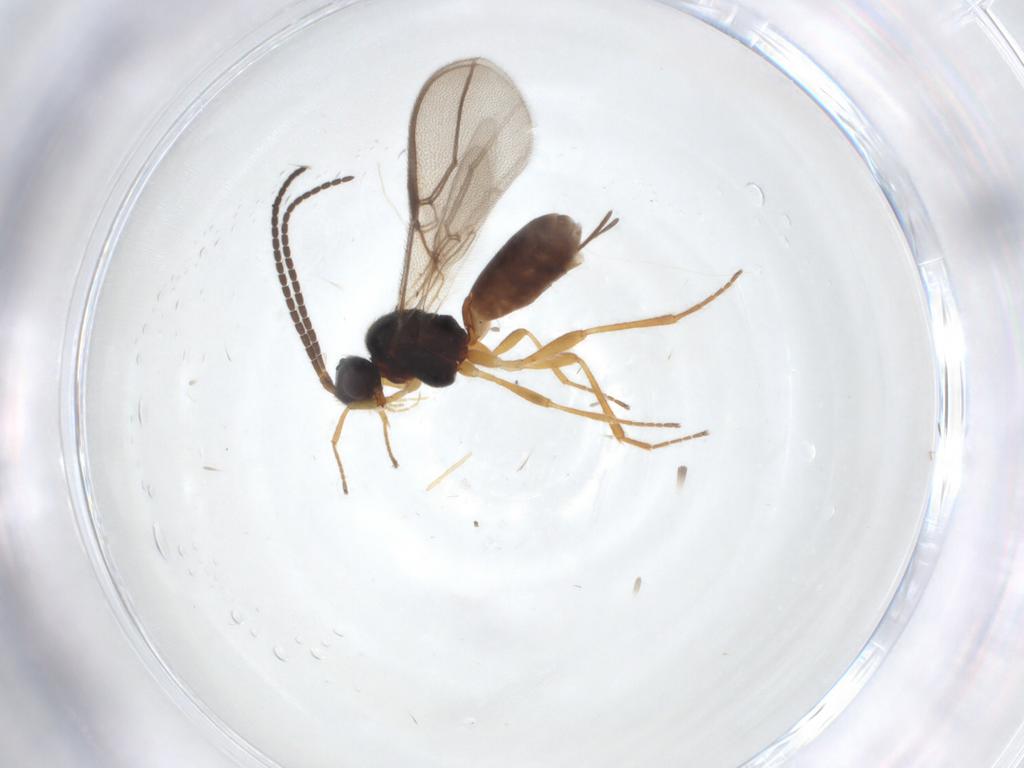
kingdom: Animalia
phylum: Arthropoda
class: Insecta
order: Hymenoptera
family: Braconidae
